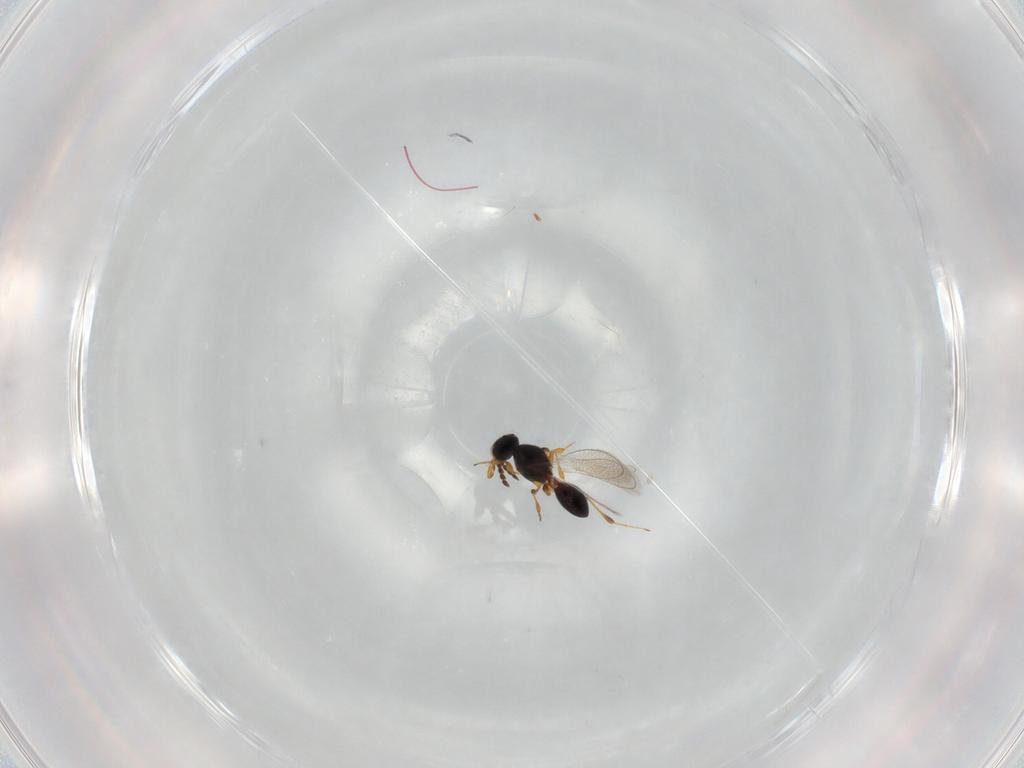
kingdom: Animalia
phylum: Arthropoda
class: Insecta
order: Hymenoptera
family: Platygastridae
